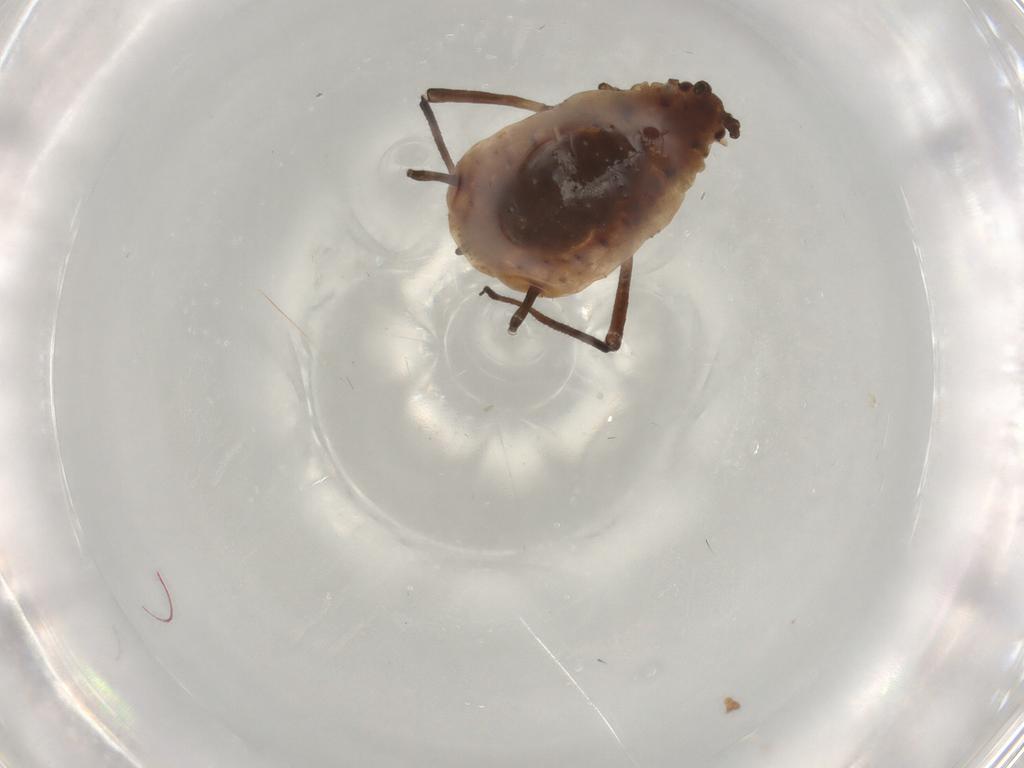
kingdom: Animalia
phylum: Arthropoda
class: Insecta
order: Hemiptera
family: Aphididae
